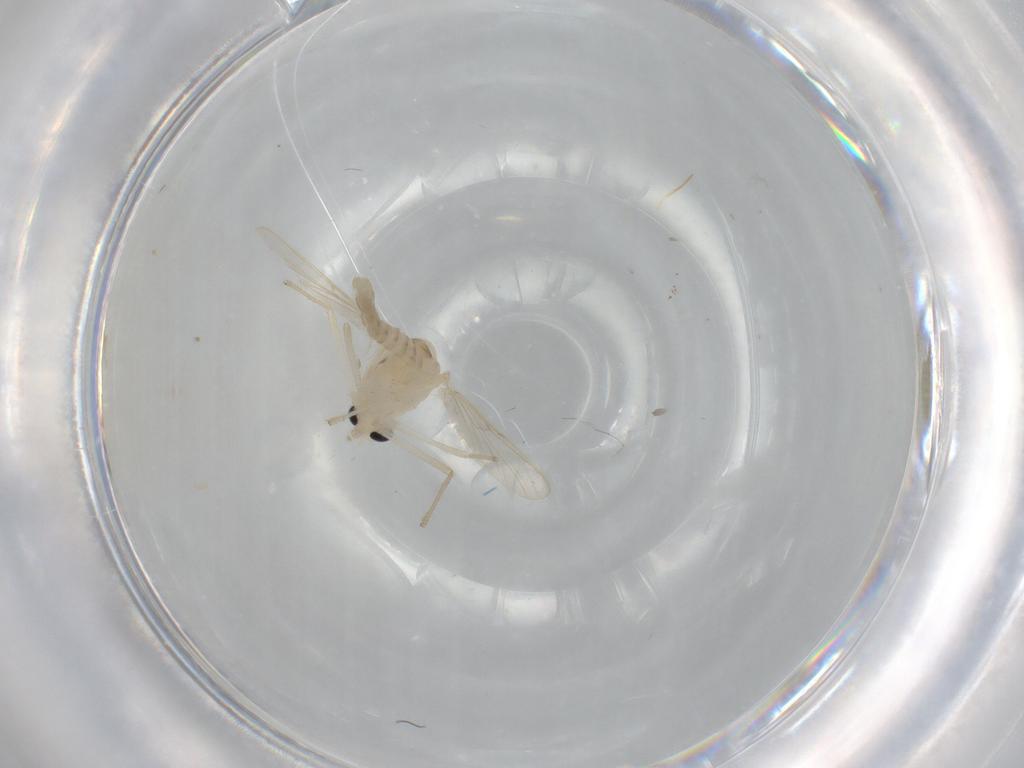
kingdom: Animalia
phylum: Arthropoda
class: Insecta
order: Diptera
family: Chironomidae
